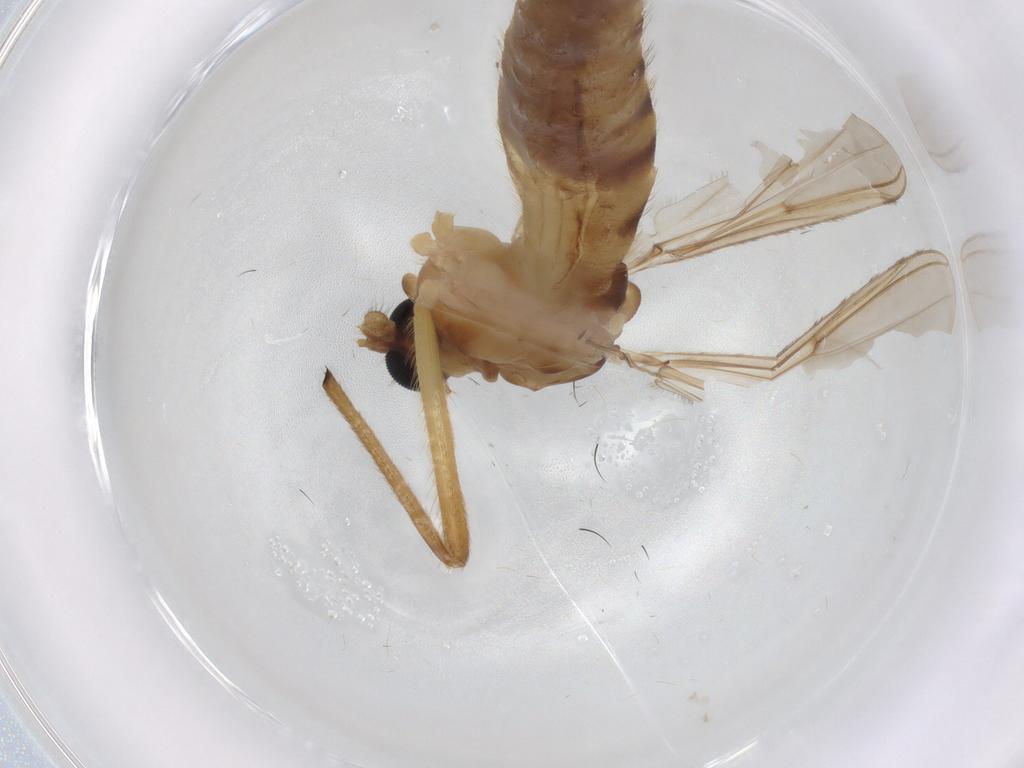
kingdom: Animalia
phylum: Arthropoda
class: Insecta
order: Diptera
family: Chironomidae
